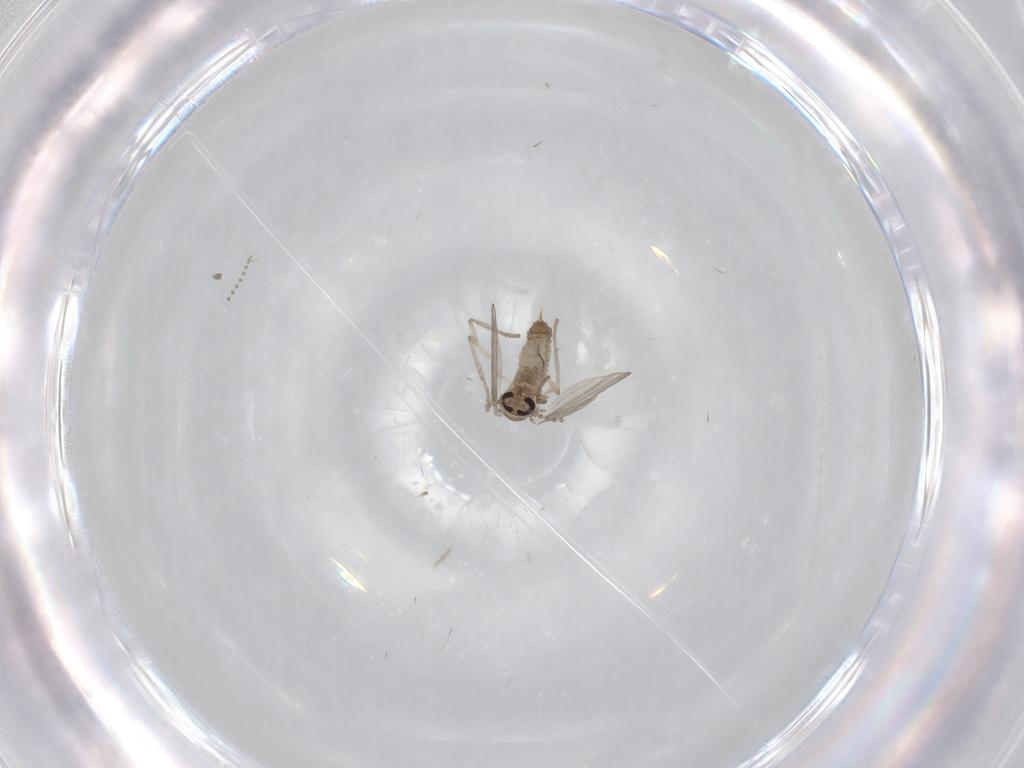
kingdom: Animalia
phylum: Arthropoda
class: Insecta
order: Diptera
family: Psychodidae
